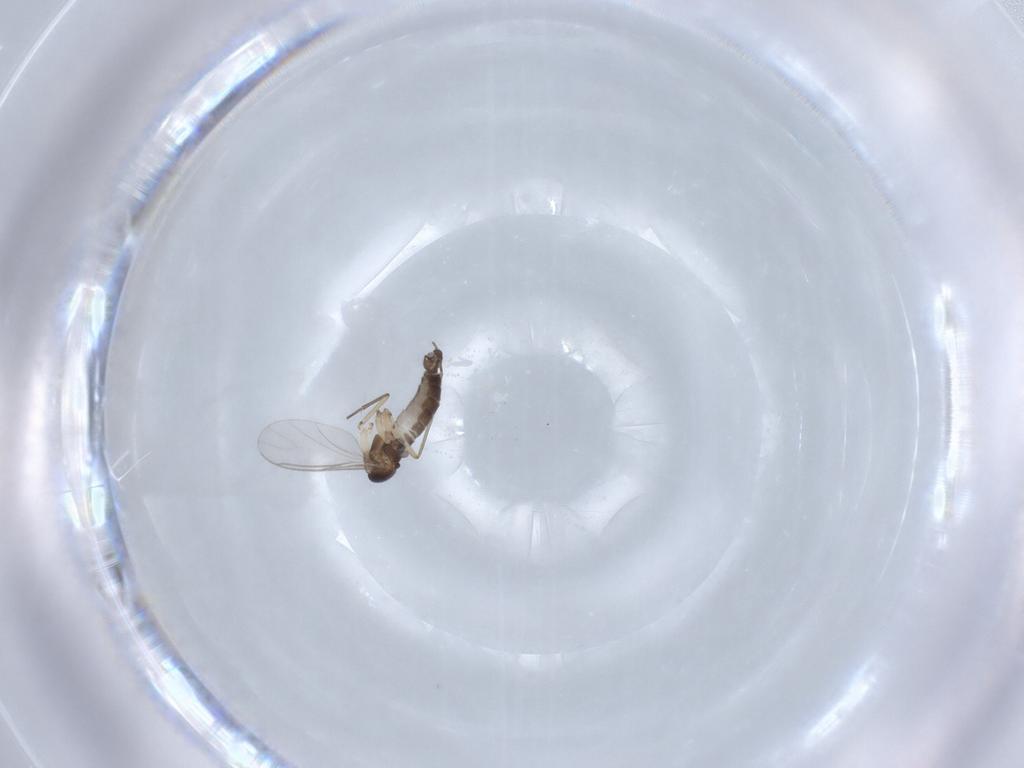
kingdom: Animalia
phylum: Arthropoda
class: Insecta
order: Diptera
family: Sciaridae
